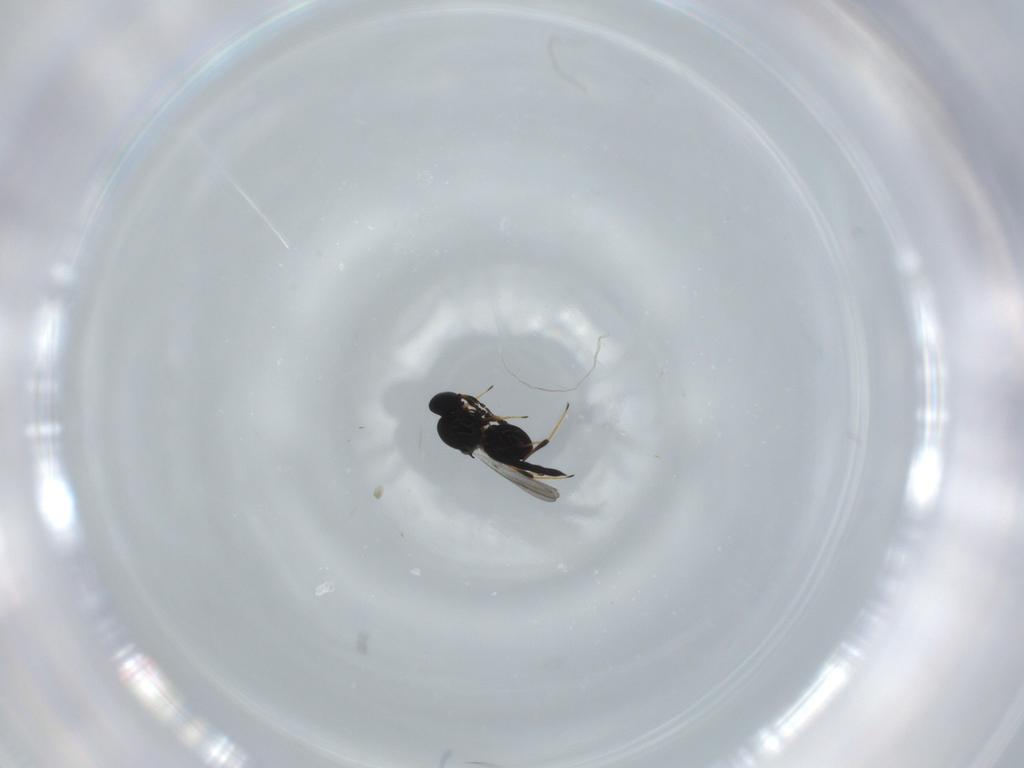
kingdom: Animalia
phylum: Arthropoda
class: Insecta
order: Hymenoptera
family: Platygastridae
